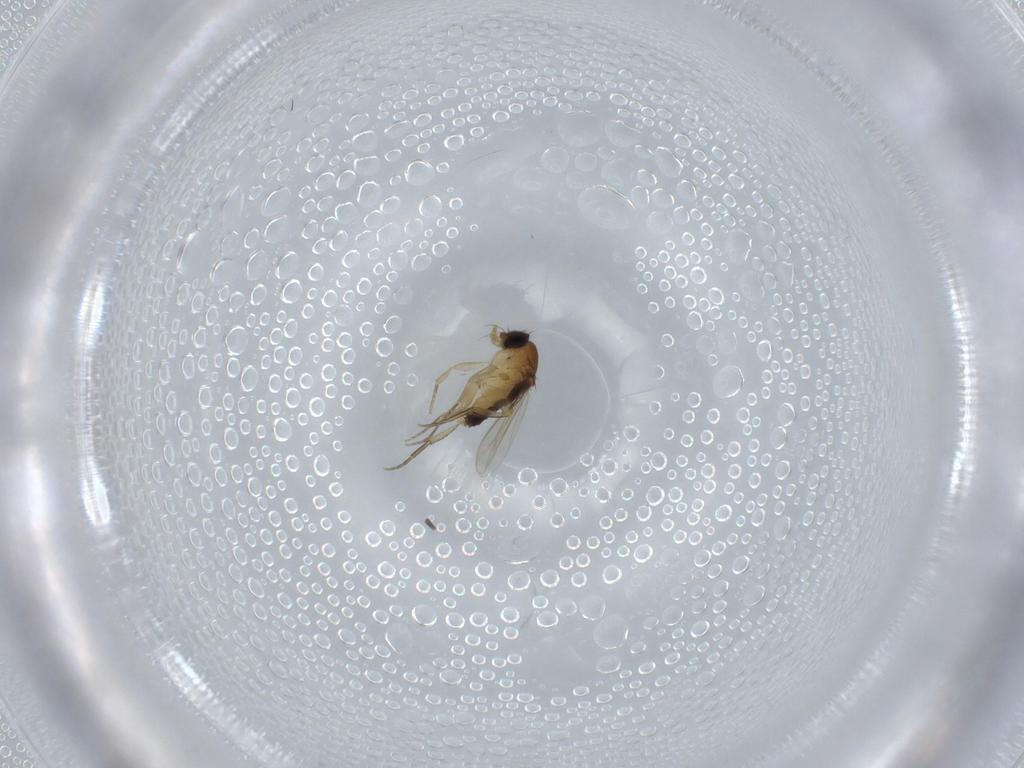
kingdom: Animalia
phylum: Arthropoda
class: Insecta
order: Diptera
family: Phoridae
